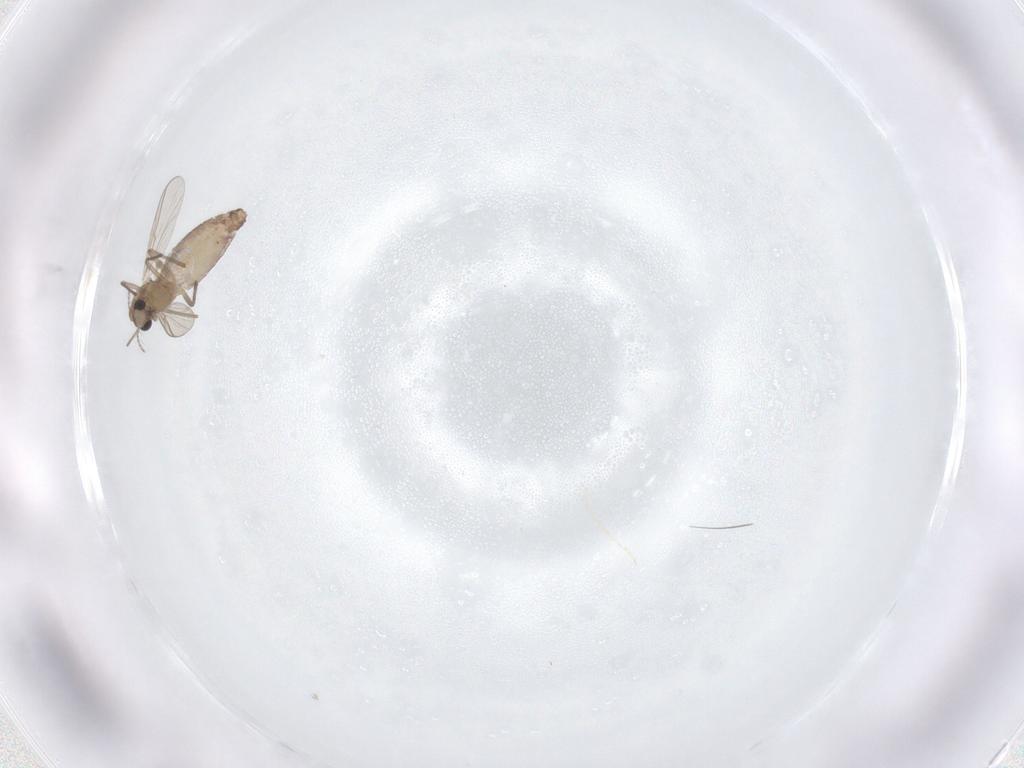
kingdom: Animalia
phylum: Arthropoda
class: Insecta
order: Diptera
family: Chironomidae
